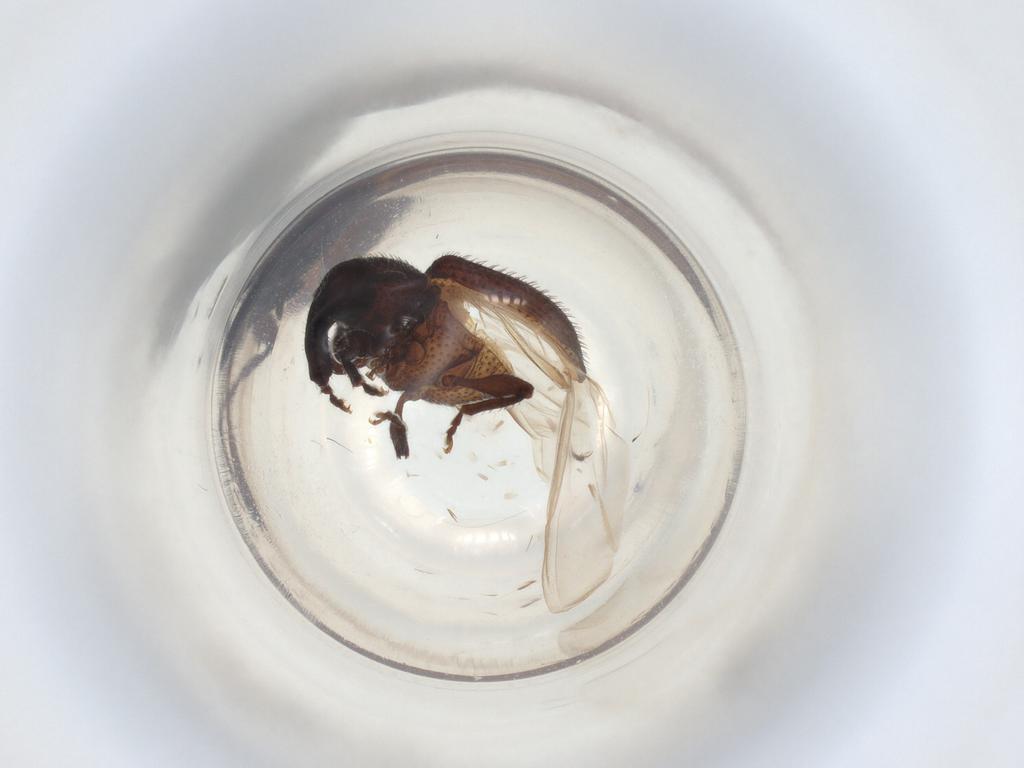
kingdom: Animalia
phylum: Arthropoda
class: Insecta
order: Coleoptera
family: Curculionidae
